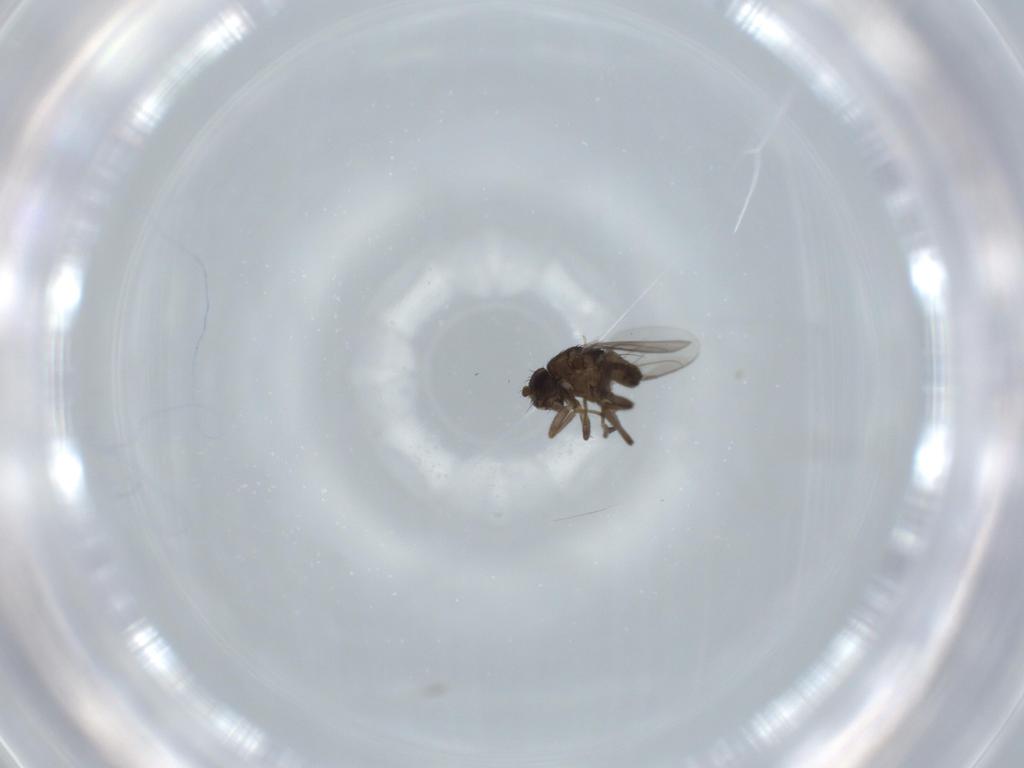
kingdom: Animalia
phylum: Arthropoda
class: Insecta
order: Diptera
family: Sphaeroceridae
